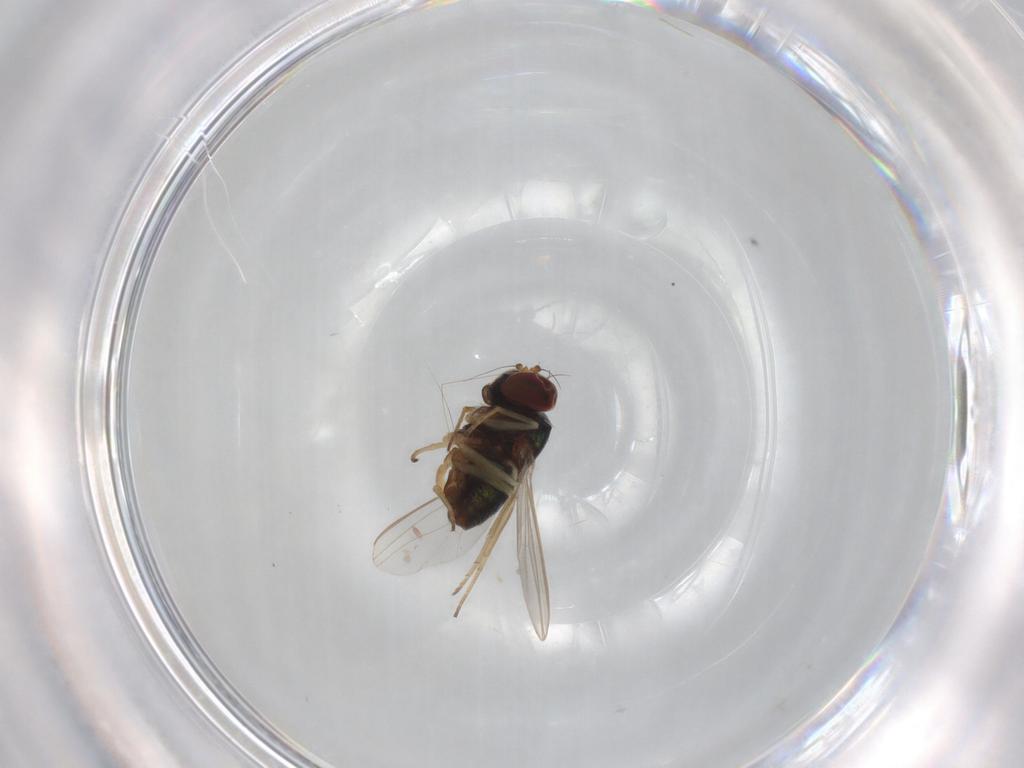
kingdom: Animalia
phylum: Arthropoda
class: Insecta
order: Diptera
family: Dolichopodidae
